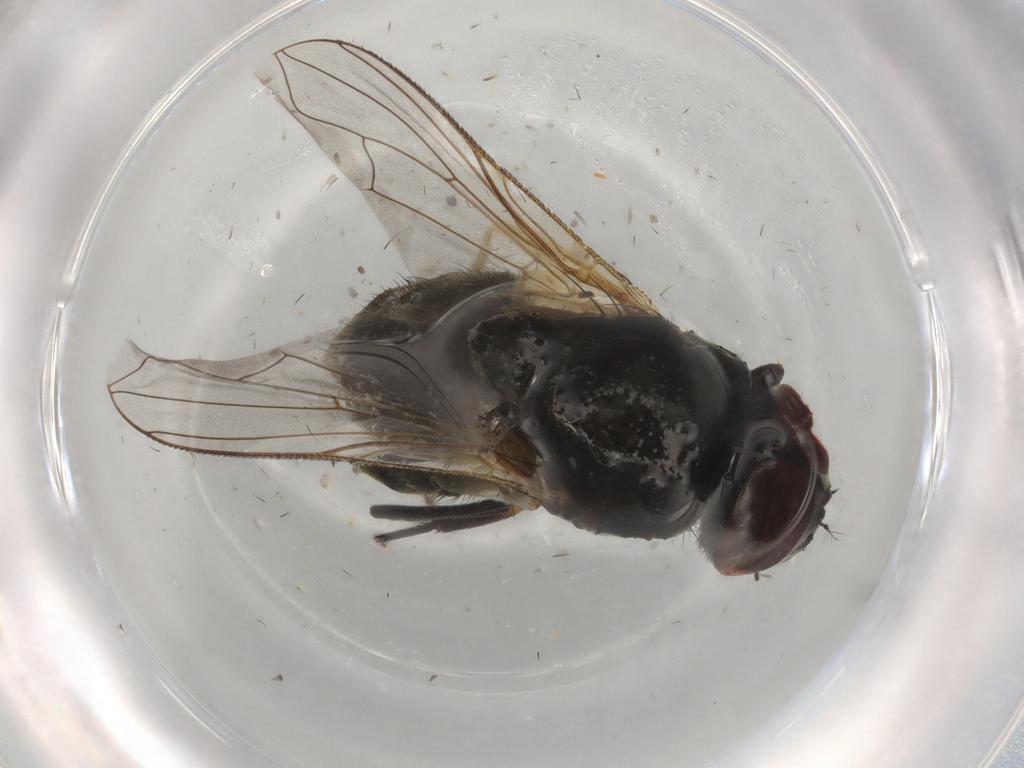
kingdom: Animalia
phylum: Arthropoda
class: Insecta
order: Diptera
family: Muscidae
